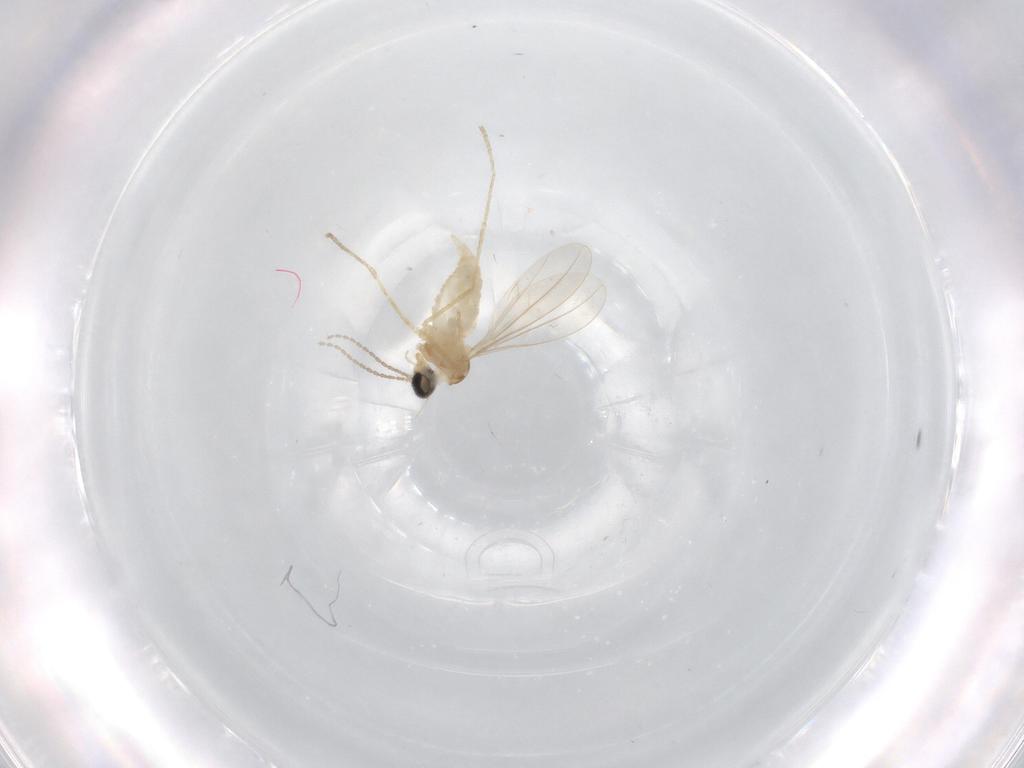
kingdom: Animalia
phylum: Arthropoda
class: Insecta
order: Diptera
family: Cecidomyiidae
